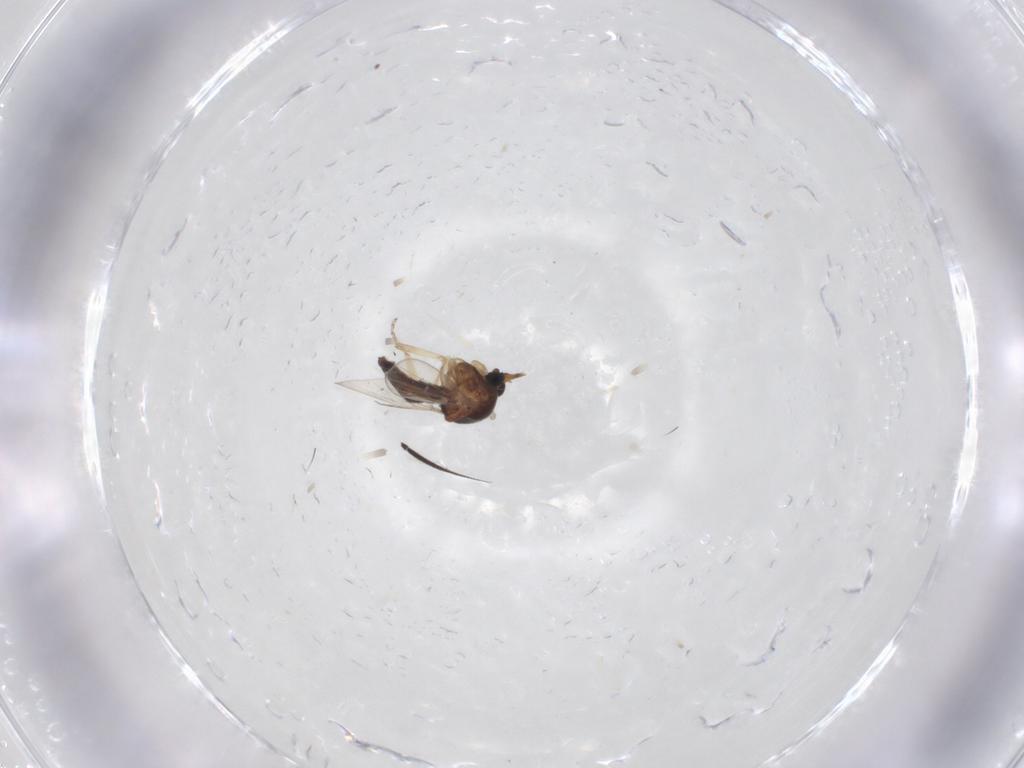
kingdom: Animalia
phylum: Arthropoda
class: Insecta
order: Diptera
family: Ceratopogonidae
